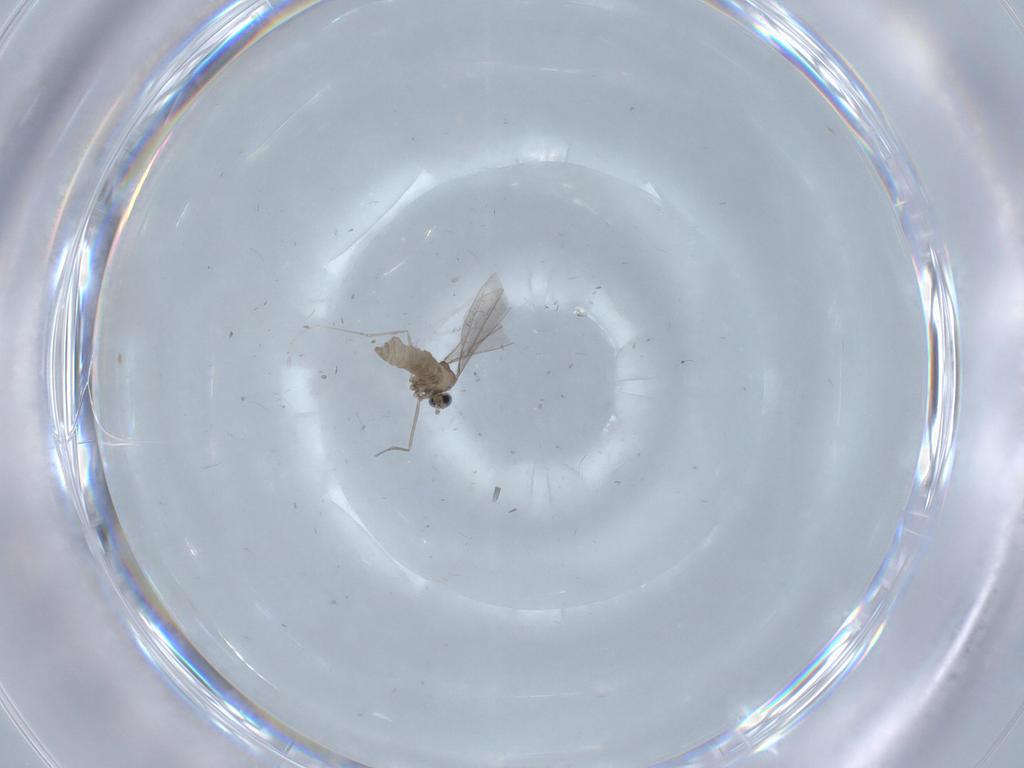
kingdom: Animalia
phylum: Arthropoda
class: Insecta
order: Diptera
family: Cecidomyiidae
